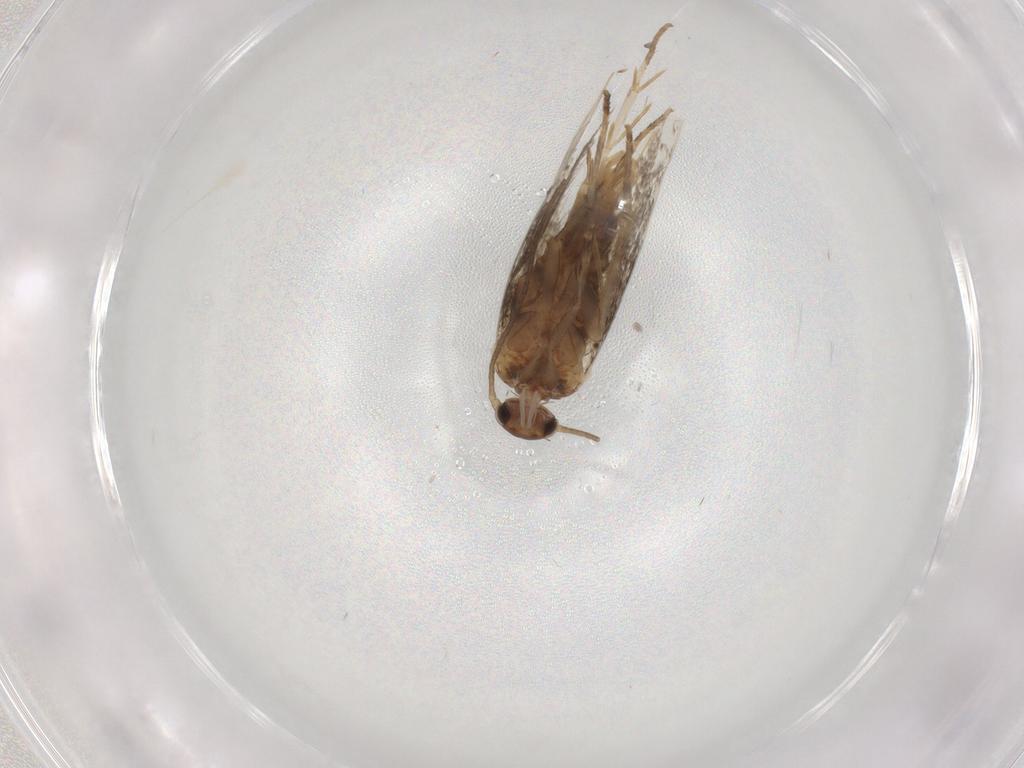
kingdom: Animalia
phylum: Arthropoda
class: Insecta
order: Lepidoptera
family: Elachistidae
